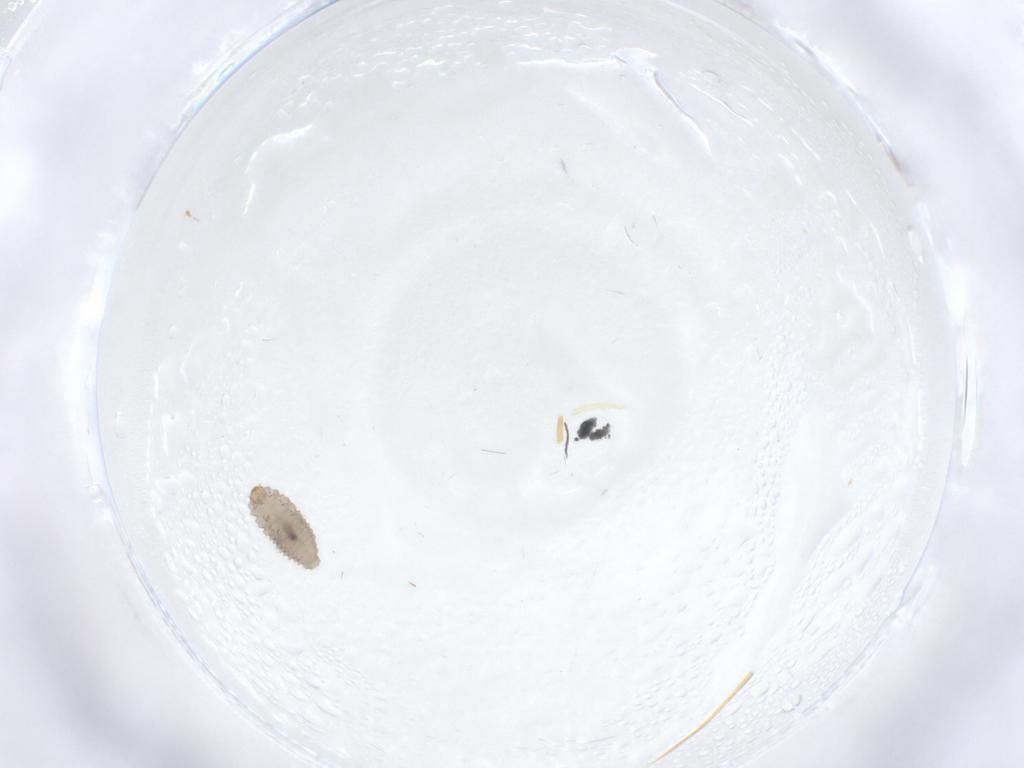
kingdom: Animalia
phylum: Arthropoda
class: Insecta
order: Coleoptera
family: Corylophidae
